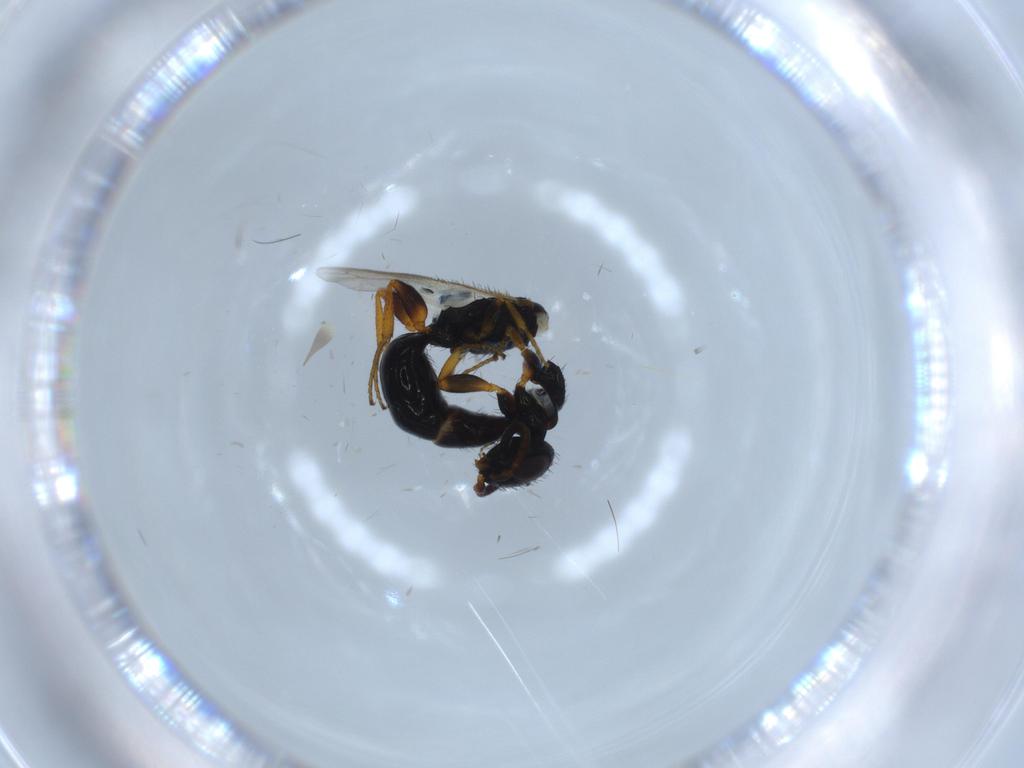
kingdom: Animalia
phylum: Arthropoda
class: Insecta
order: Hymenoptera
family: Bethylidae
